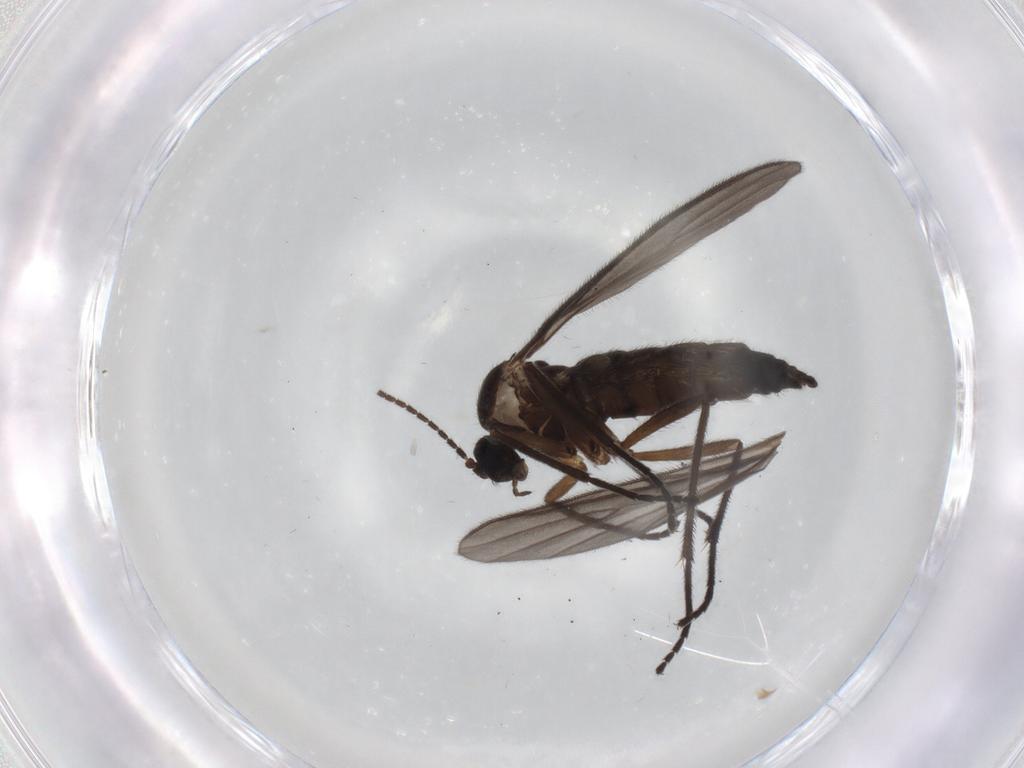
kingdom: Animalia
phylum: Arthropoda
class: Insecta
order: Diptera
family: Sciaridae
